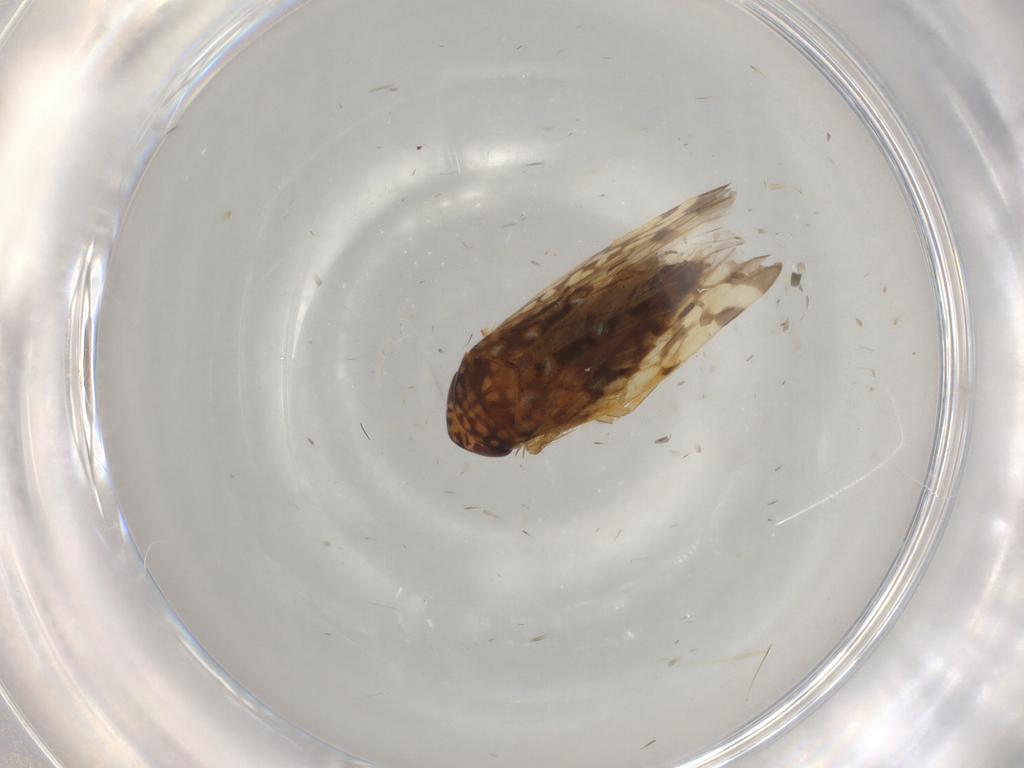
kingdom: Animalia
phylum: Arthropoda
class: Insecta
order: Hemiptera
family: Cicadellidae
